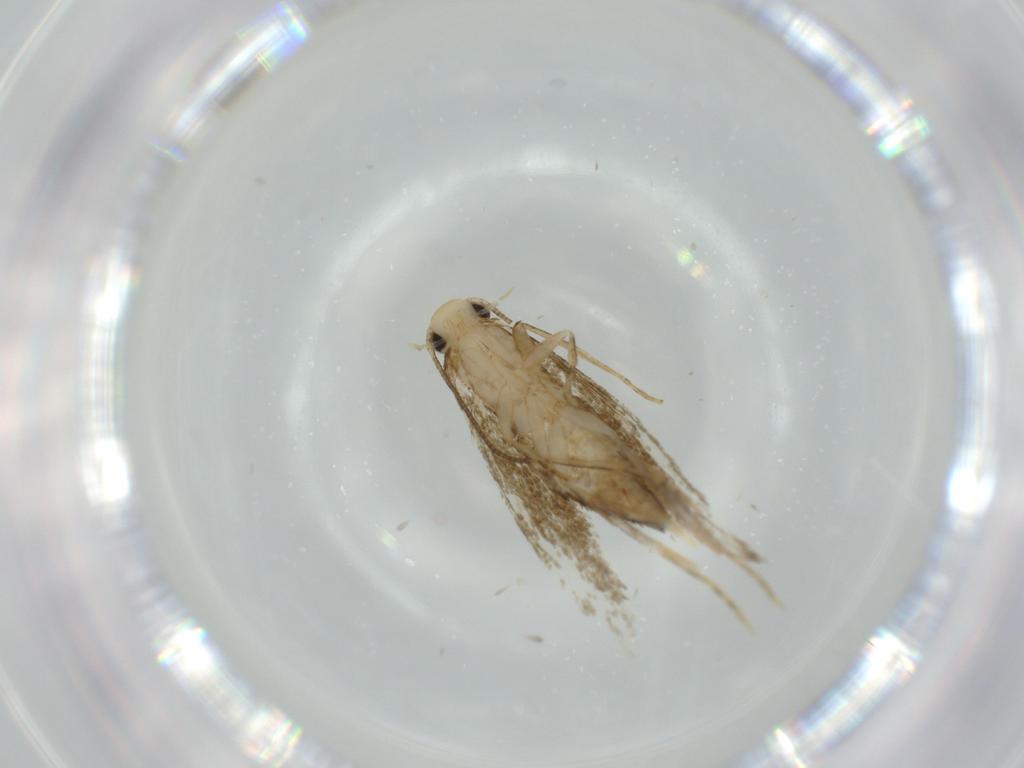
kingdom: Animalia
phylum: Arthropoda
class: Insecta
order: Lepidoptera
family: Tineidae
